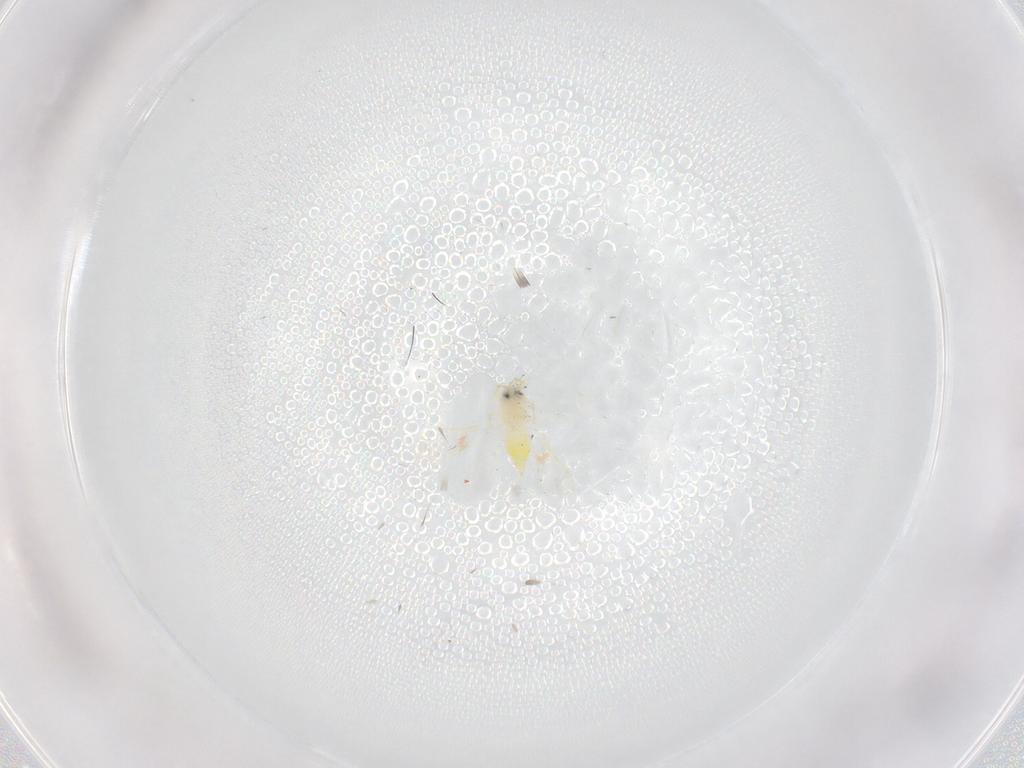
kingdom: Animalia
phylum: Arthropoda
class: Insecta
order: Hemiptera
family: Aleyrodidae
